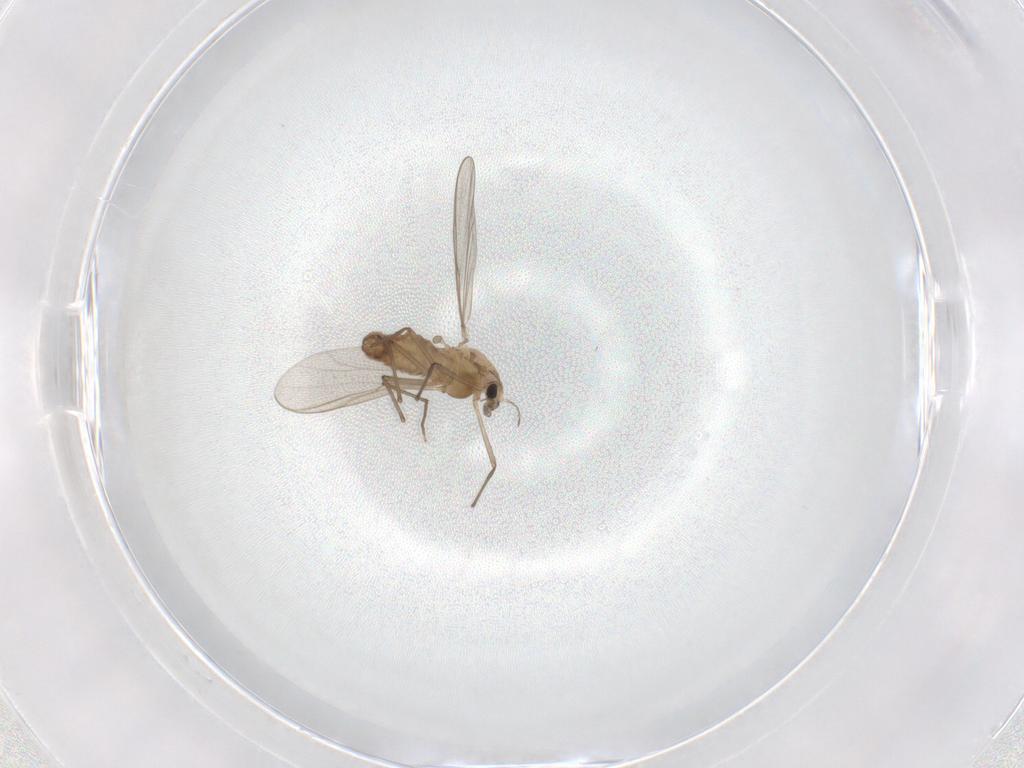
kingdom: Animalia
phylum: Arthropoda
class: Insecta
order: Diptera
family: Chironomidae
